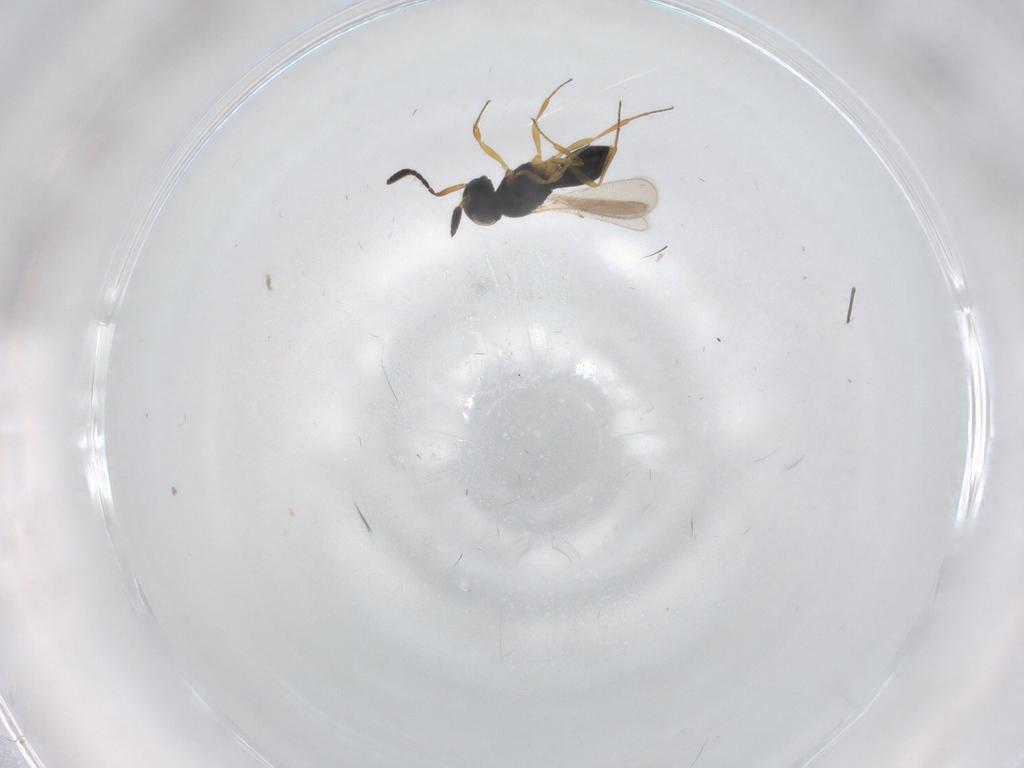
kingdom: Animalia
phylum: Arthropoda
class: Insecta
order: Hymenoptera
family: Scelionidae
